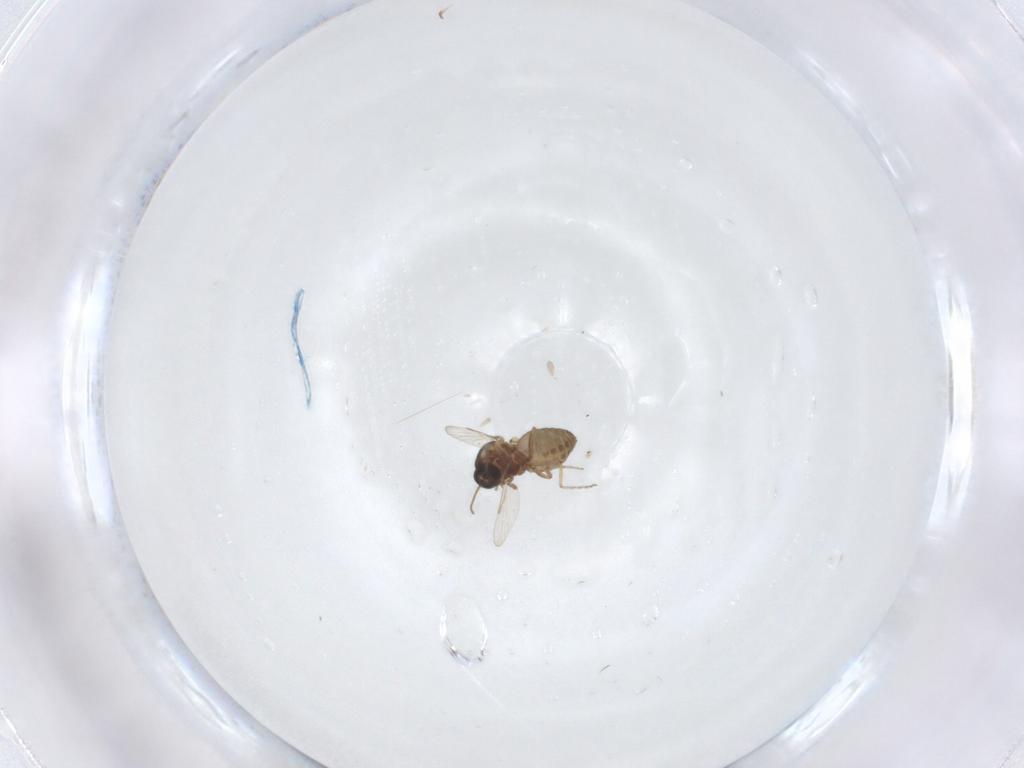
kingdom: Animalia
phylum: Arthropoda
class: Insecta
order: Diptera
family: Ceratopogonidae
